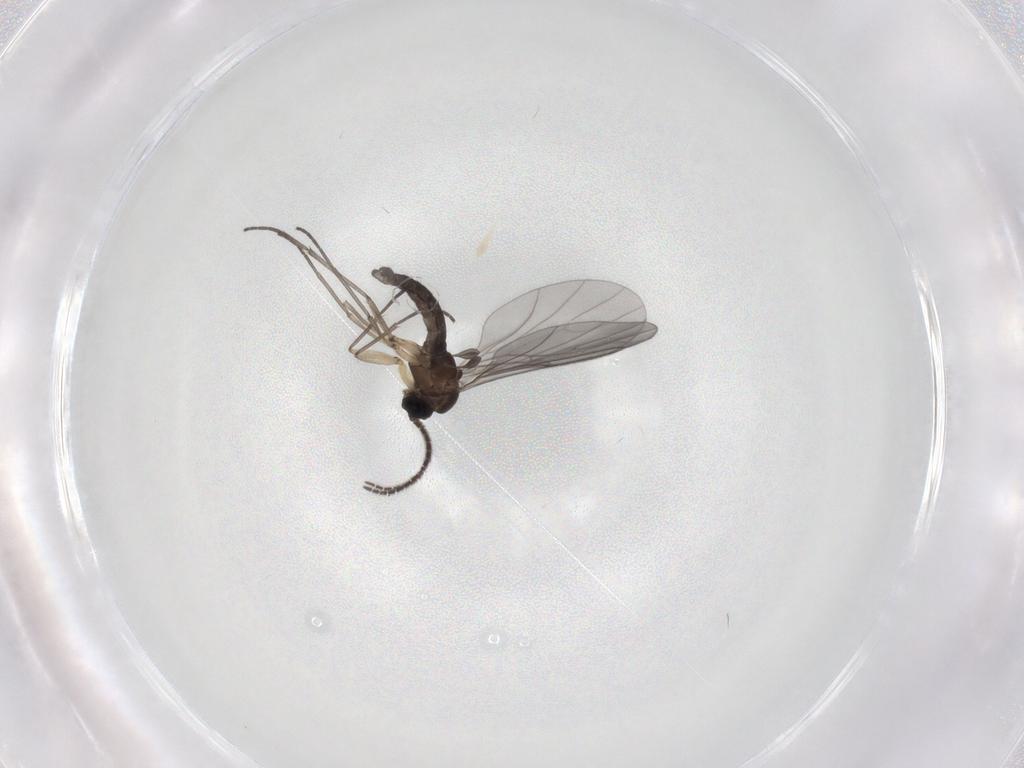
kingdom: Animalia
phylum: Arthropoda
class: Insecta
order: Diptera
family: Sciaridae
